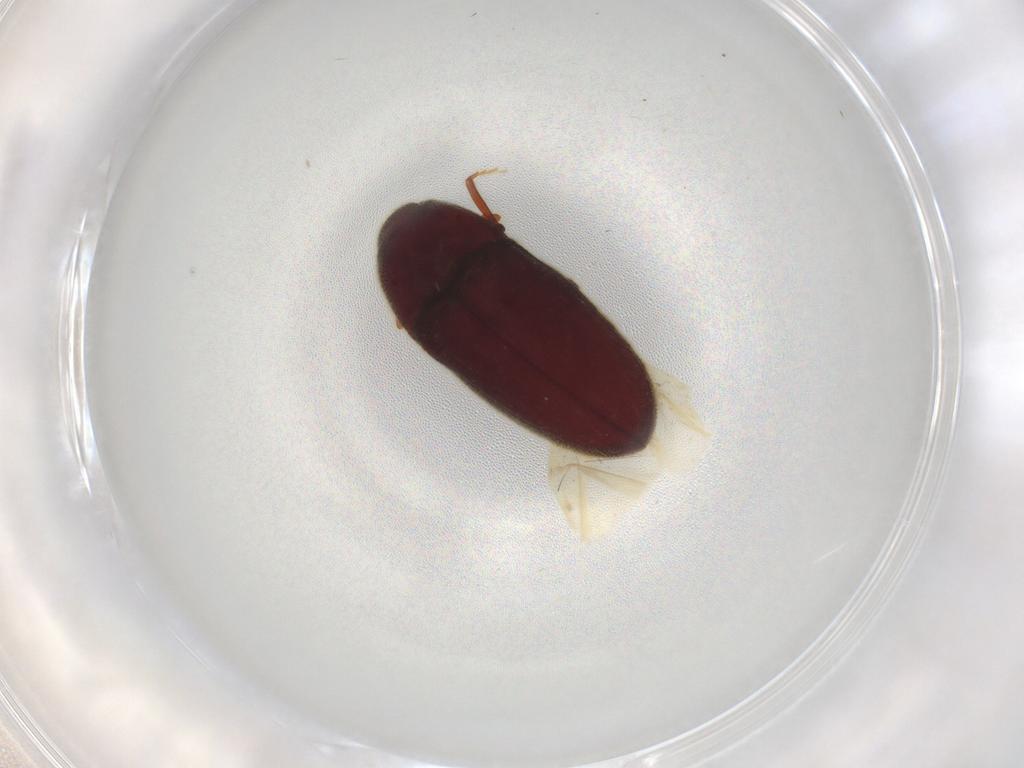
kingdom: Animalia
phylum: Arthropoda
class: Insecta
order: Coleoptera
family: Throscidae
